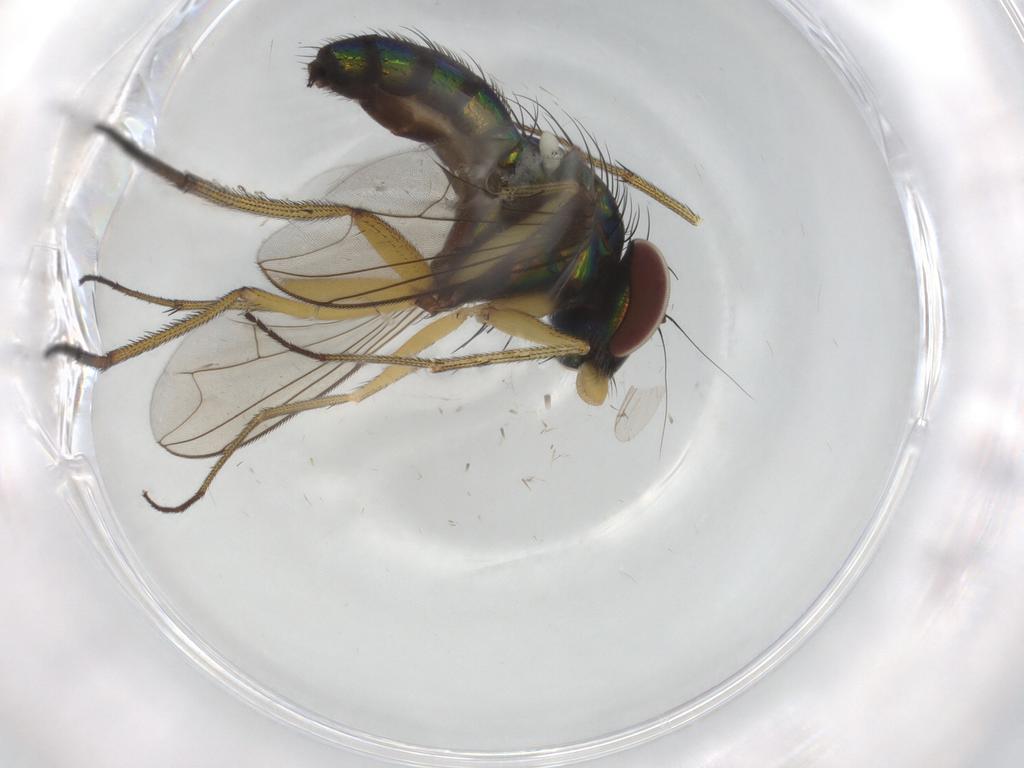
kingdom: Animalia
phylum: Arthropoda
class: Insecta
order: Diptera
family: Dolichopodidae
